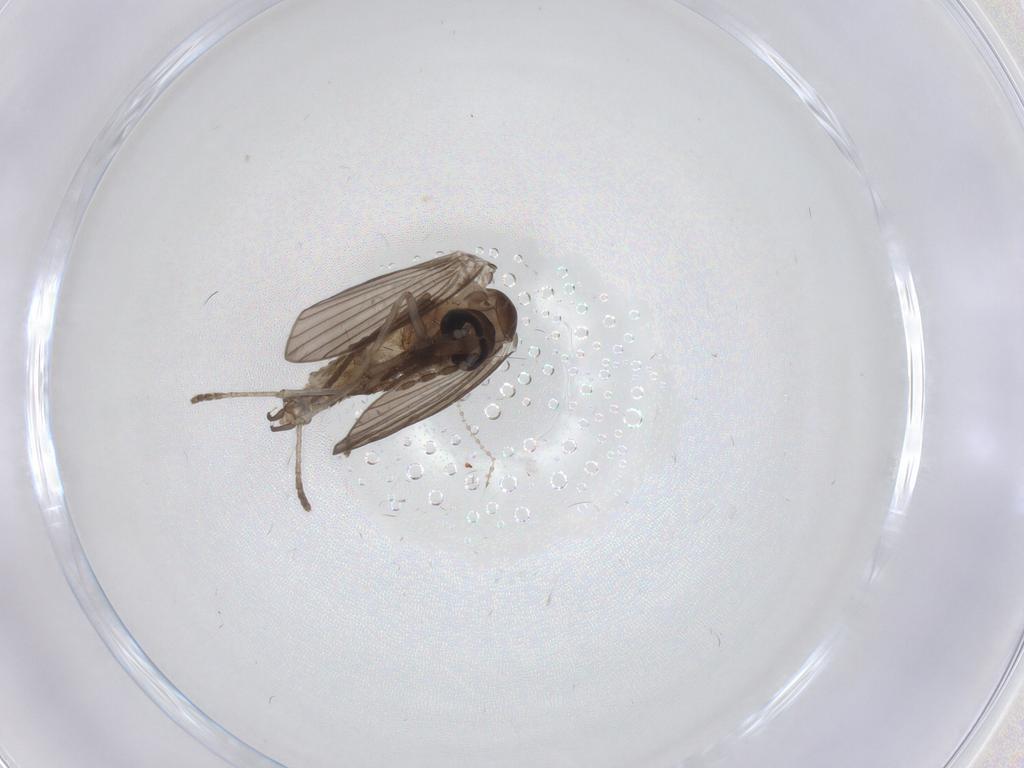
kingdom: Animalia
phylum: Arthropoda
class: Insecta
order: Diptera
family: Psychodidae
